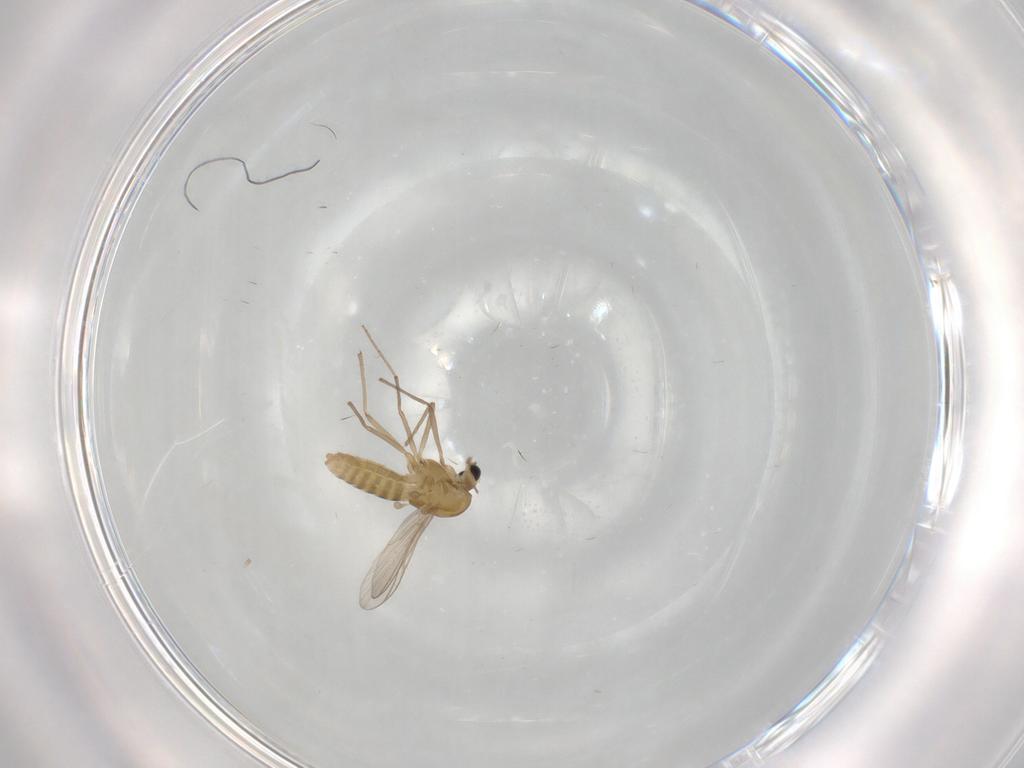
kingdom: Animalia
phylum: Arthropoda
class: Insecta
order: Diptera
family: Chironomidae
